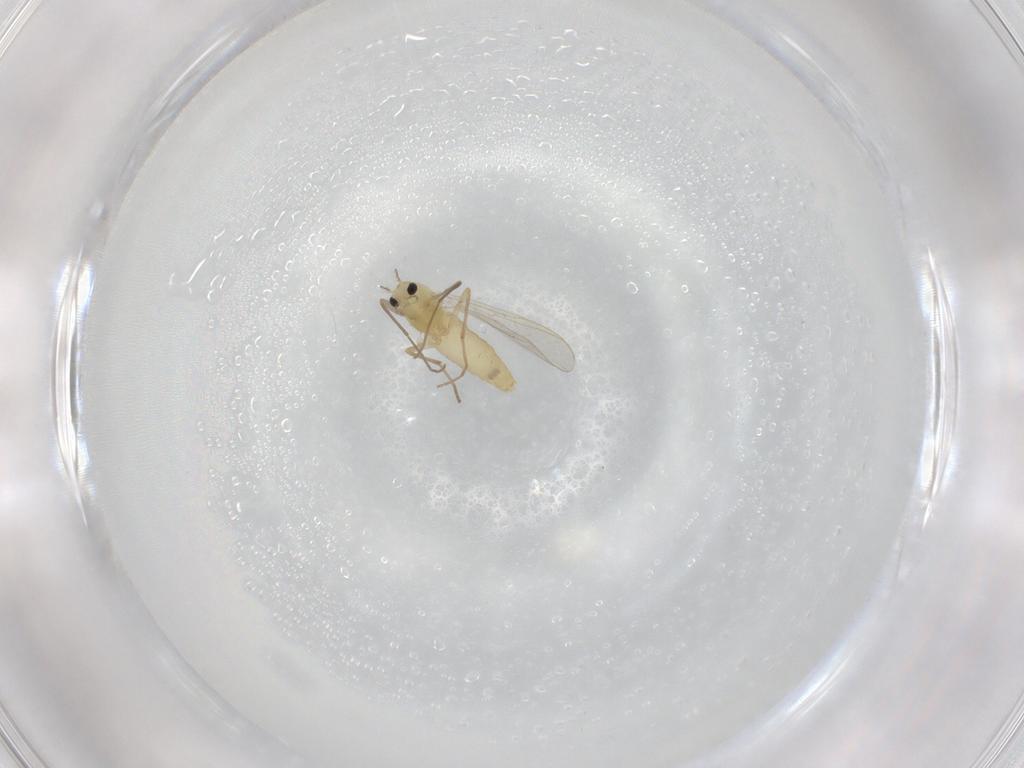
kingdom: Animalia
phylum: Arthropoda
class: Insecta
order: Diptera
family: Chironomidae
